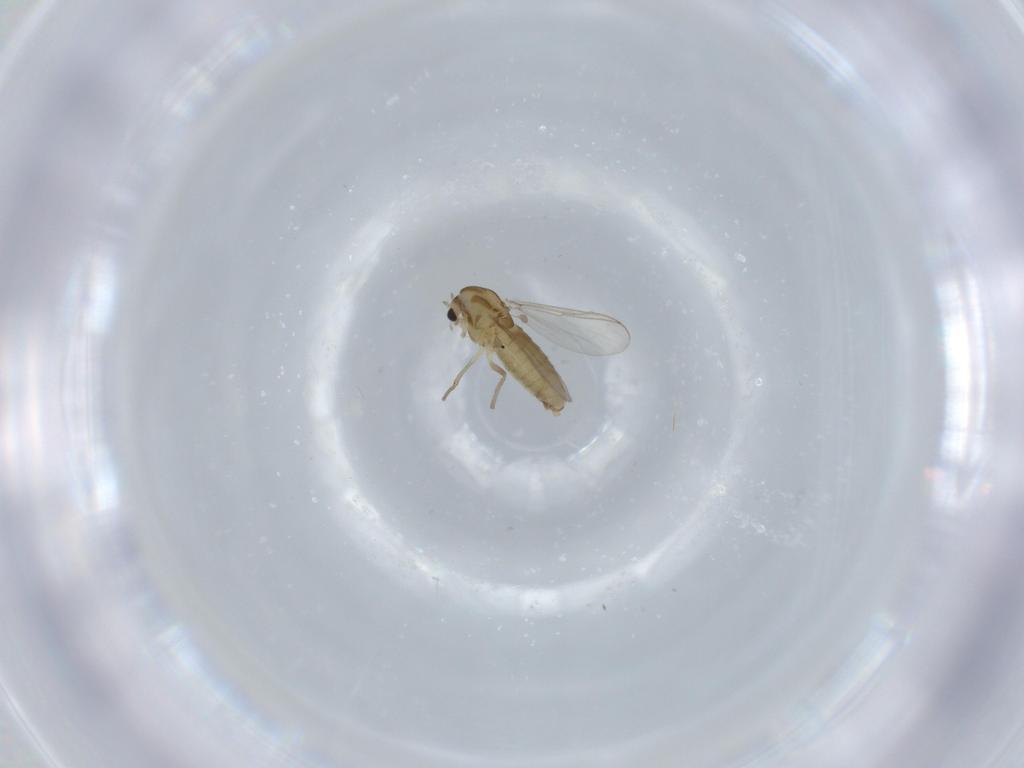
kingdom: Animalia
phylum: Arthropoda
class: Insecta
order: Diptera
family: Chironomidae
